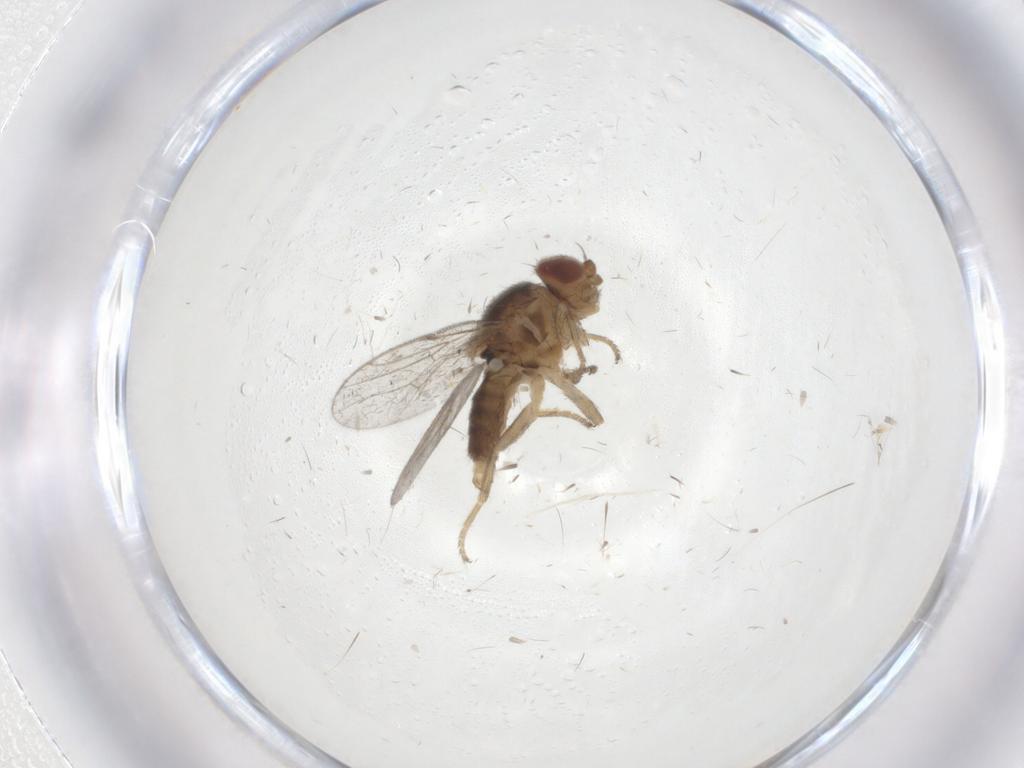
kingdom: Animalia
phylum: Arthropoda
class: Insecta
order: Diptera
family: Chloropidae
